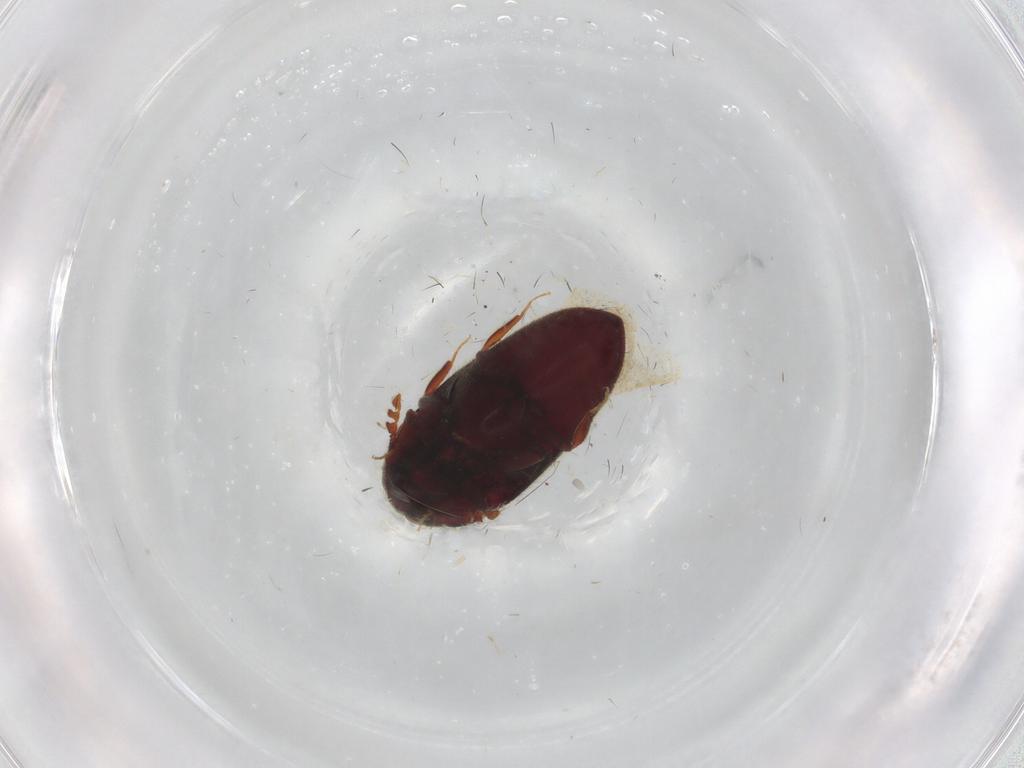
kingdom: Animalia
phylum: Arthropoda
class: Insecta
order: Coleoptera
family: Throscidae
